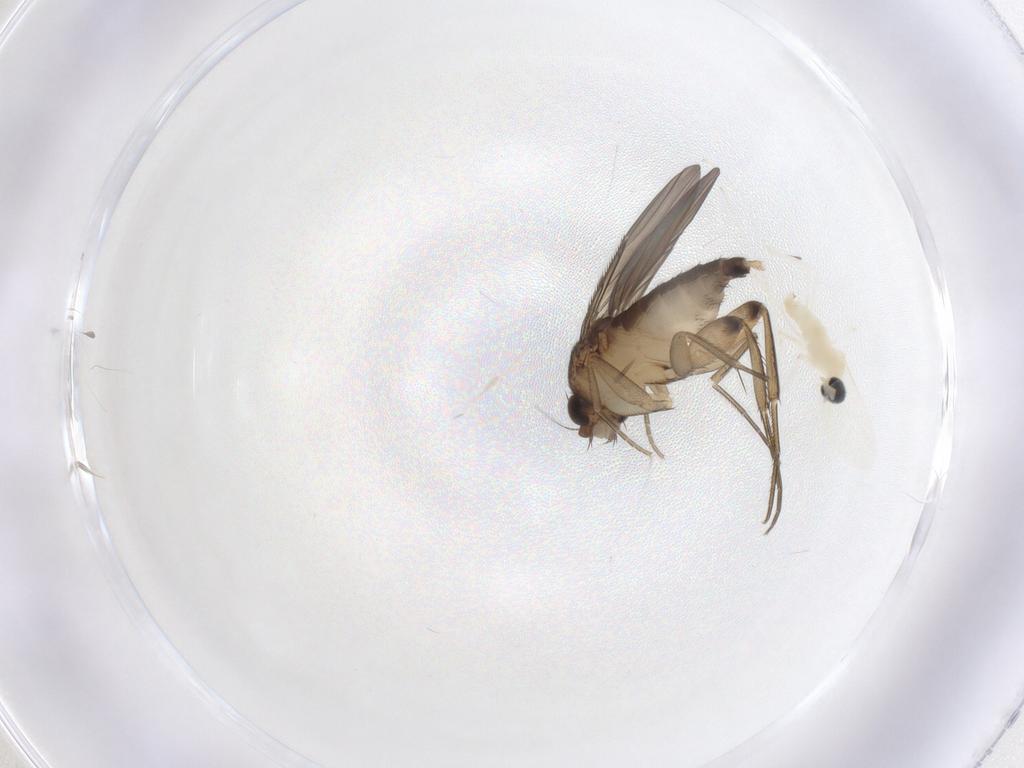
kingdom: Animalia
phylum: Arthropoda
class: Insecta
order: Diptera
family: Phoridae
